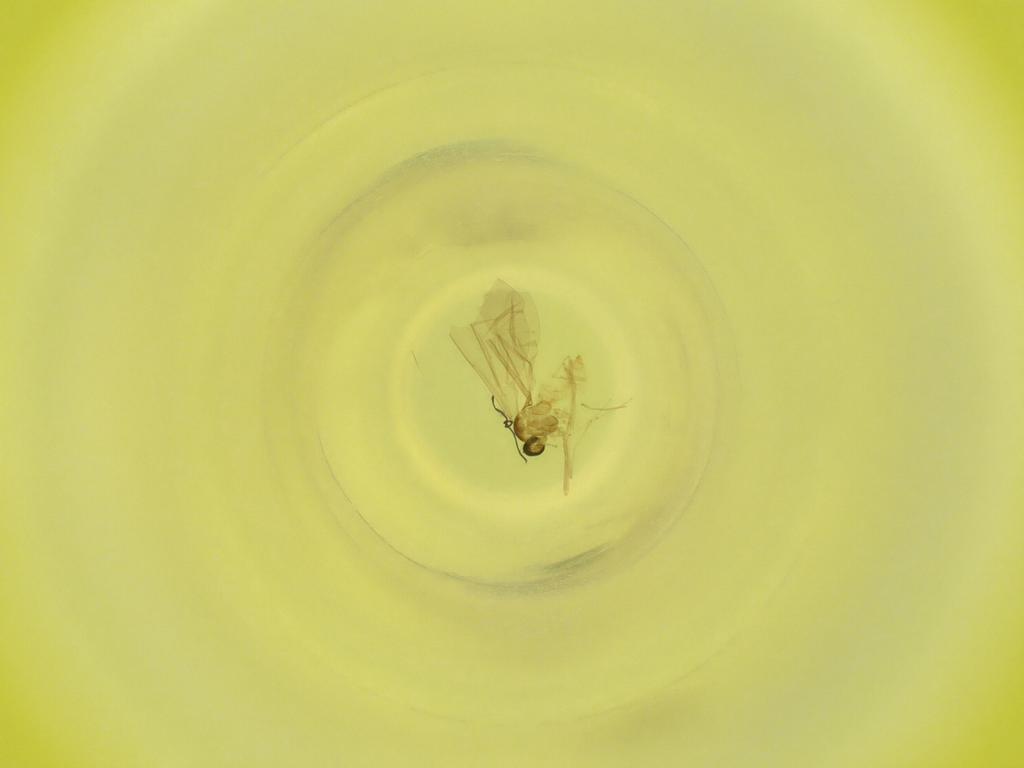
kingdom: Animalia
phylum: Arthropoda
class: Insecta
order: Diptera
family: Cecidomyiidae
